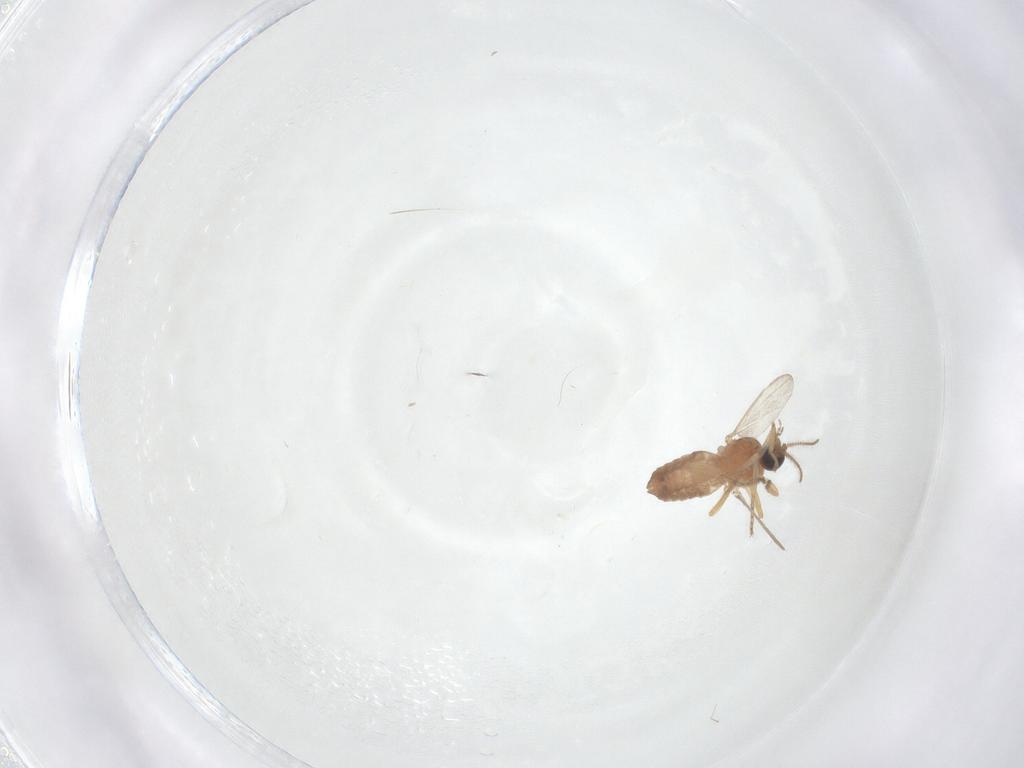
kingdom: Animalia
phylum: Arthropoda
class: Insecta
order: Diptera
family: Ceratopogonidae
